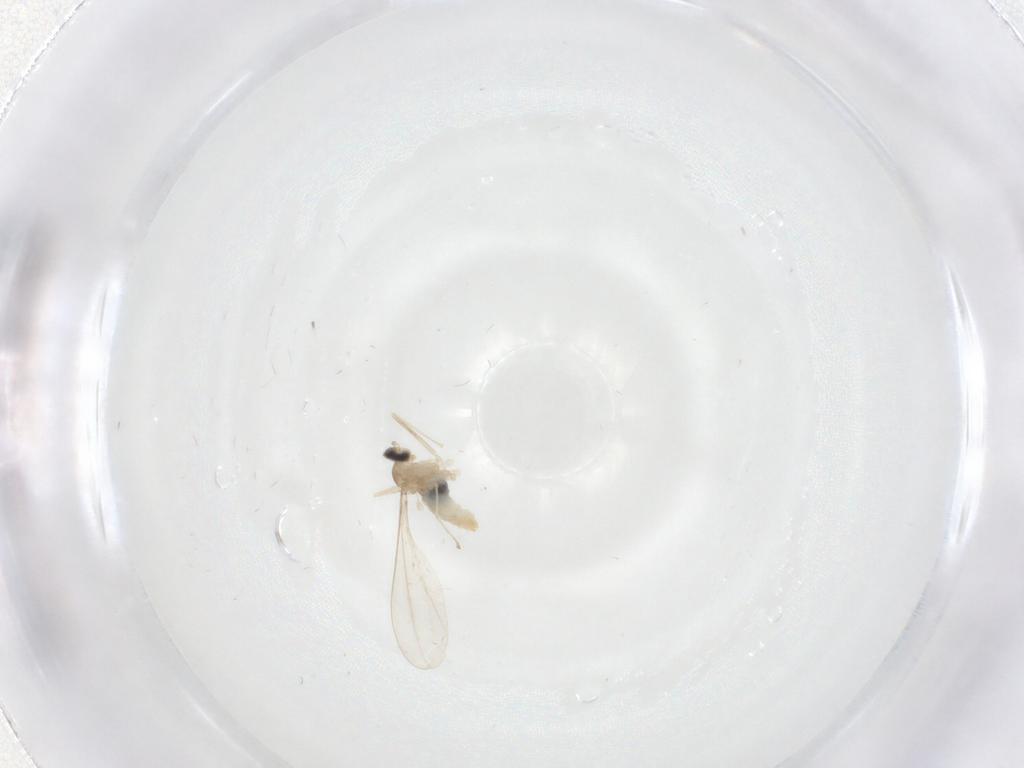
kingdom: Animalia
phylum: Arthropoda
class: Insecta
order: Diptera
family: Cecidomyiidae
